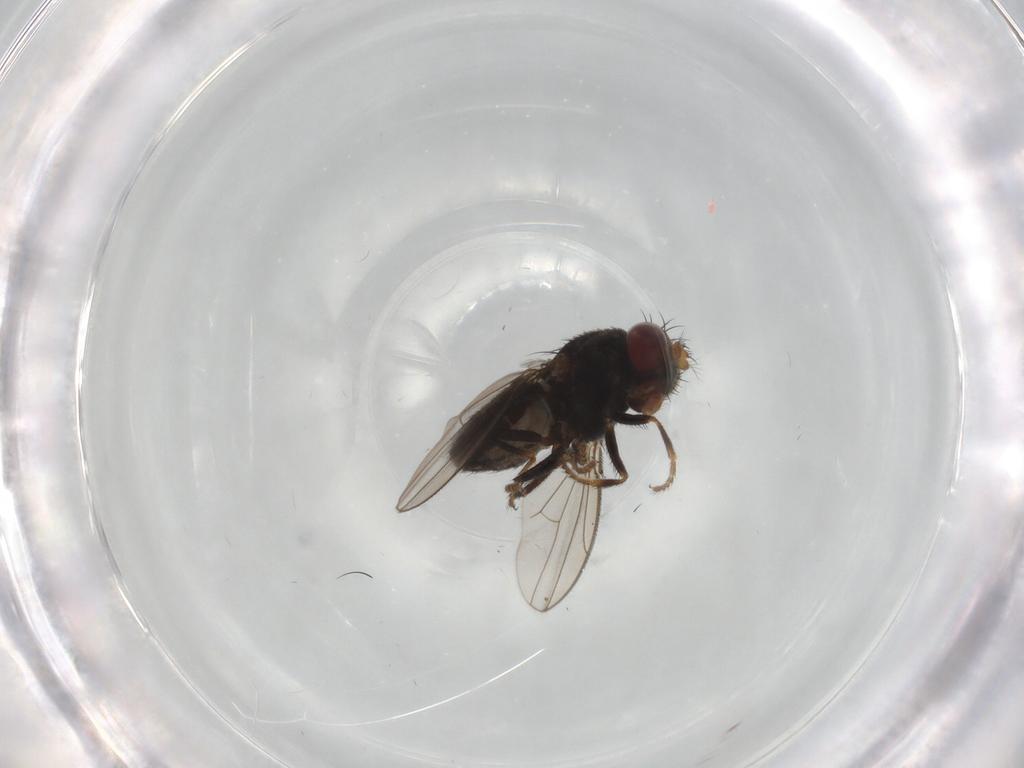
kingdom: Animalia
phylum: Arthropoda
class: Insecta
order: Diptera
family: Ephydridae
